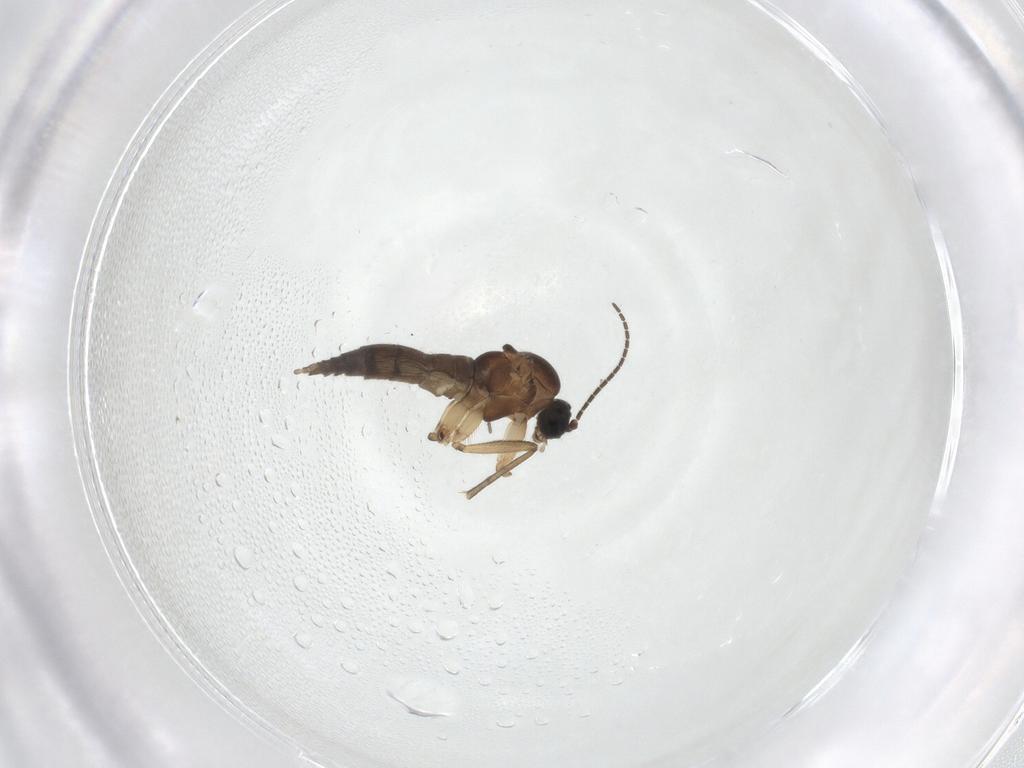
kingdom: Animalia
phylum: Arthropoda
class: Insecta
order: Diptera
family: Sciaridae
